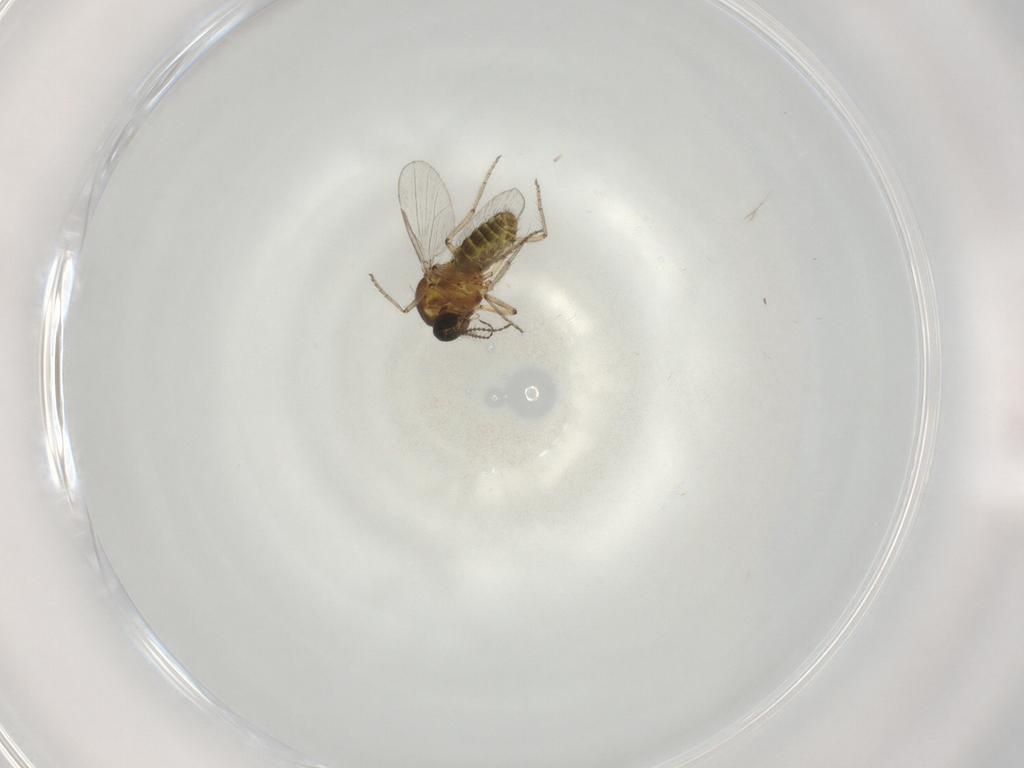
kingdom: Animalia
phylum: Arthropoda
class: Insecta
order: Diptera
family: Ceratopogonidae
